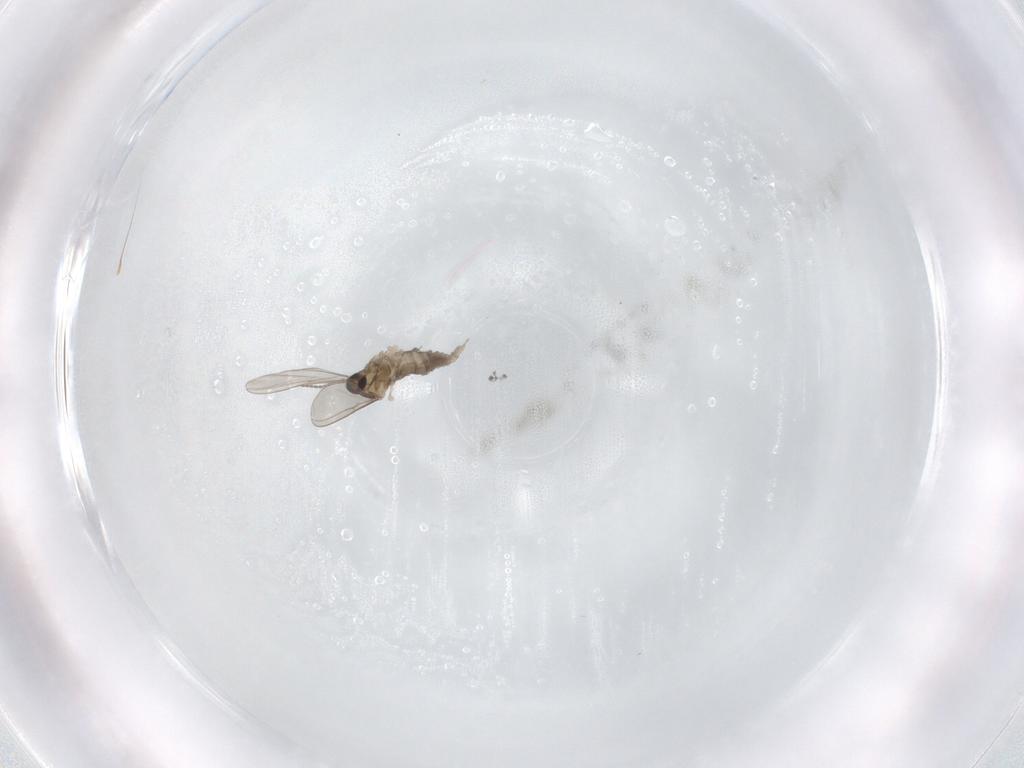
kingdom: Animalia
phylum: Arthropoda
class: Insecta
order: Diptera
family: Cecidomyiidae
